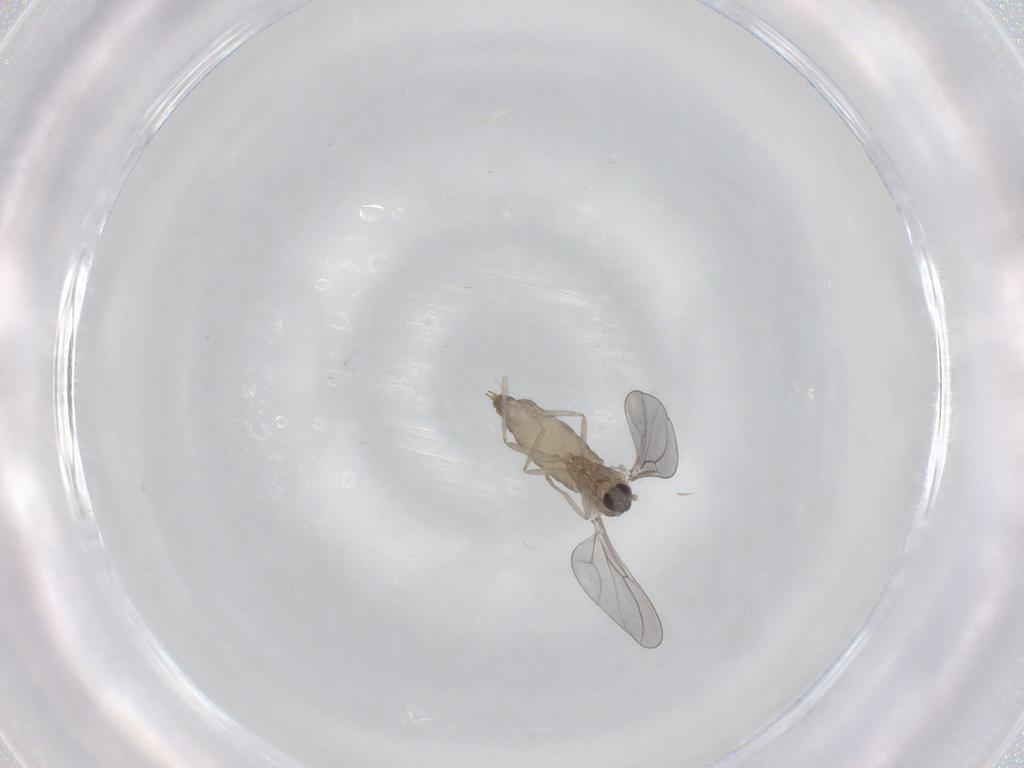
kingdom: Animalia
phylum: Arthropoda
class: Insecta
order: Diptera
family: Cecidomyiidae
